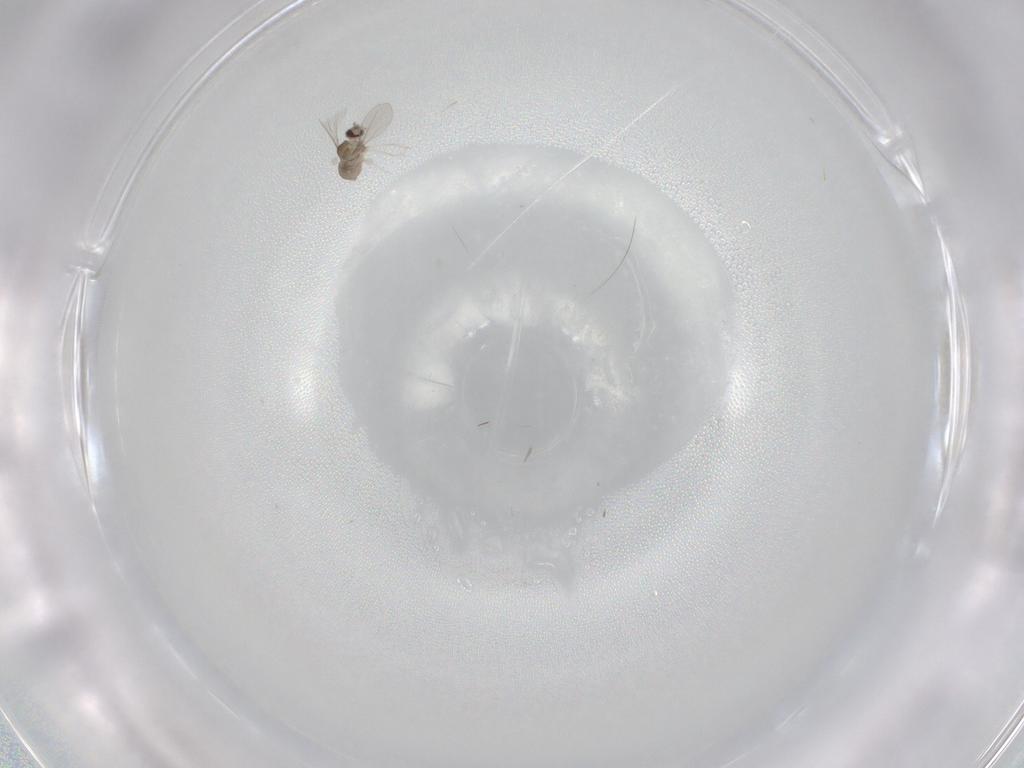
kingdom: Animalia
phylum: Arthropoda
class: Insecta
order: Diptera
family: Cecidomyiidae
